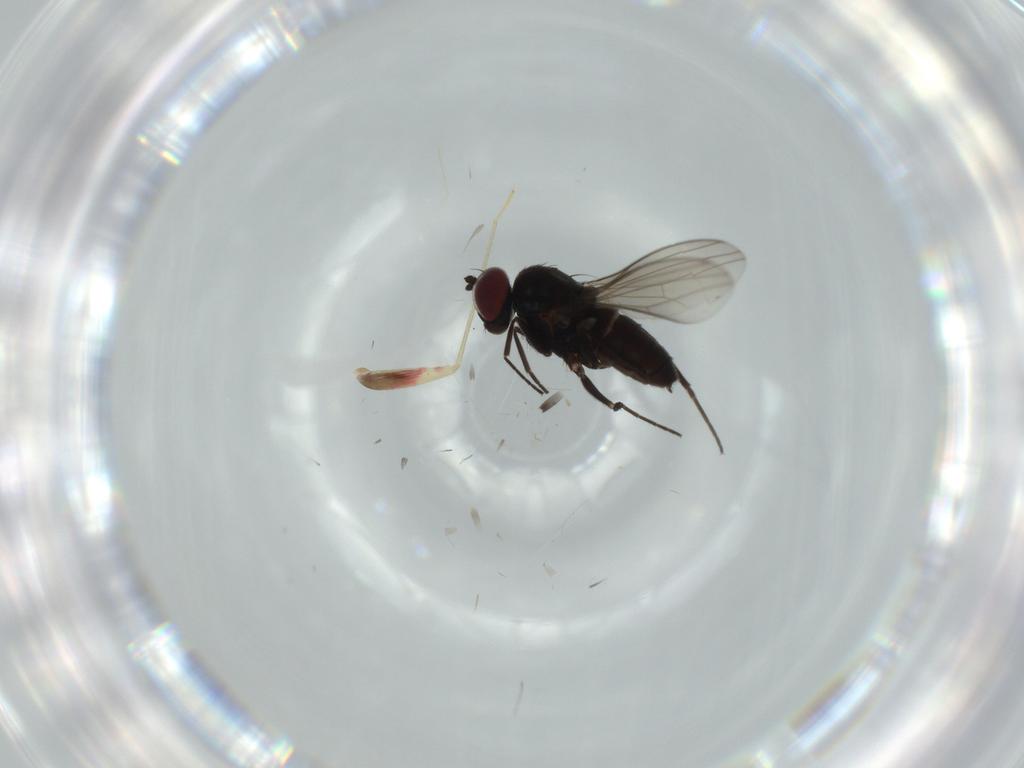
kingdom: Animalia
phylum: Arthropoda
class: Insecta
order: Diptera
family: Dolichopodidae
